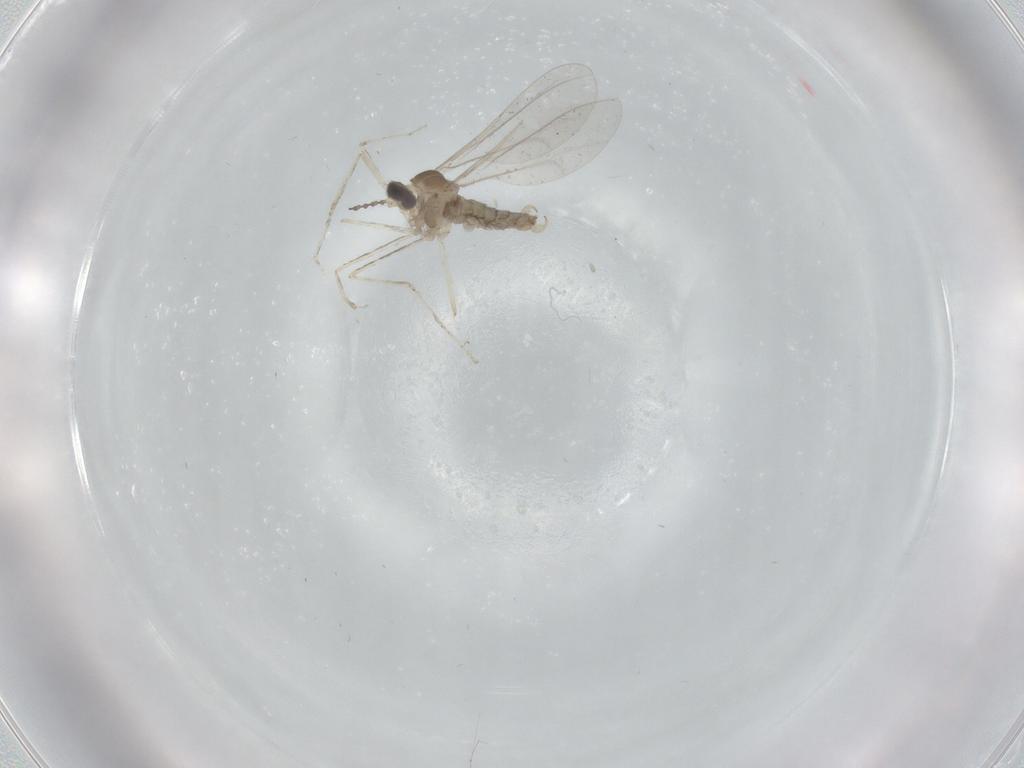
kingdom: Animalia
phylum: Arthropoda
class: Insecta
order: Diptera
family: Cecidomyiidae
